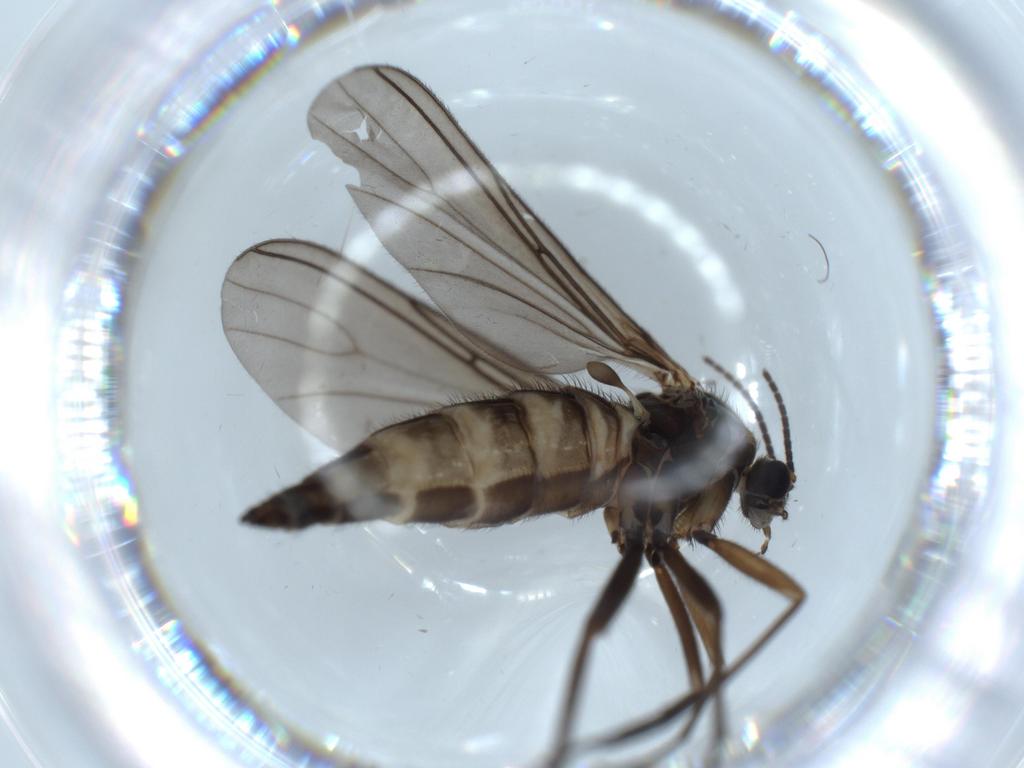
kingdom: Animalia
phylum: Arthropoda
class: Insecta
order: Diptera
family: Sciaridae
